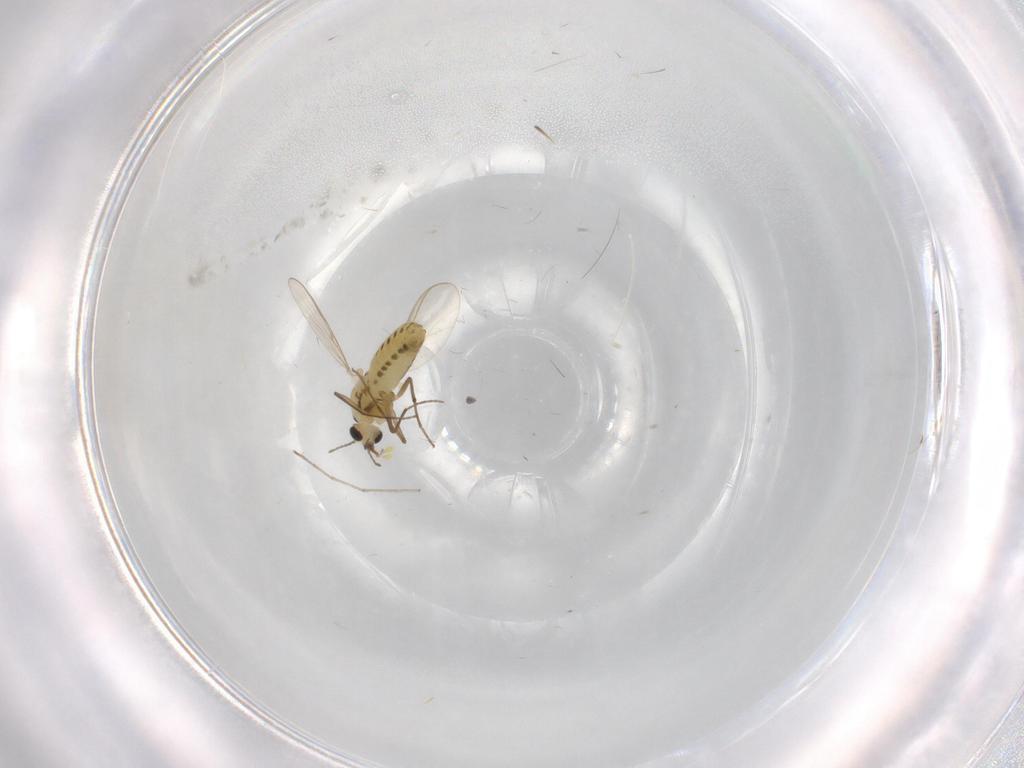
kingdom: Animalia
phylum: Arthropoda
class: Insecta
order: Diptera
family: Chironomidae
